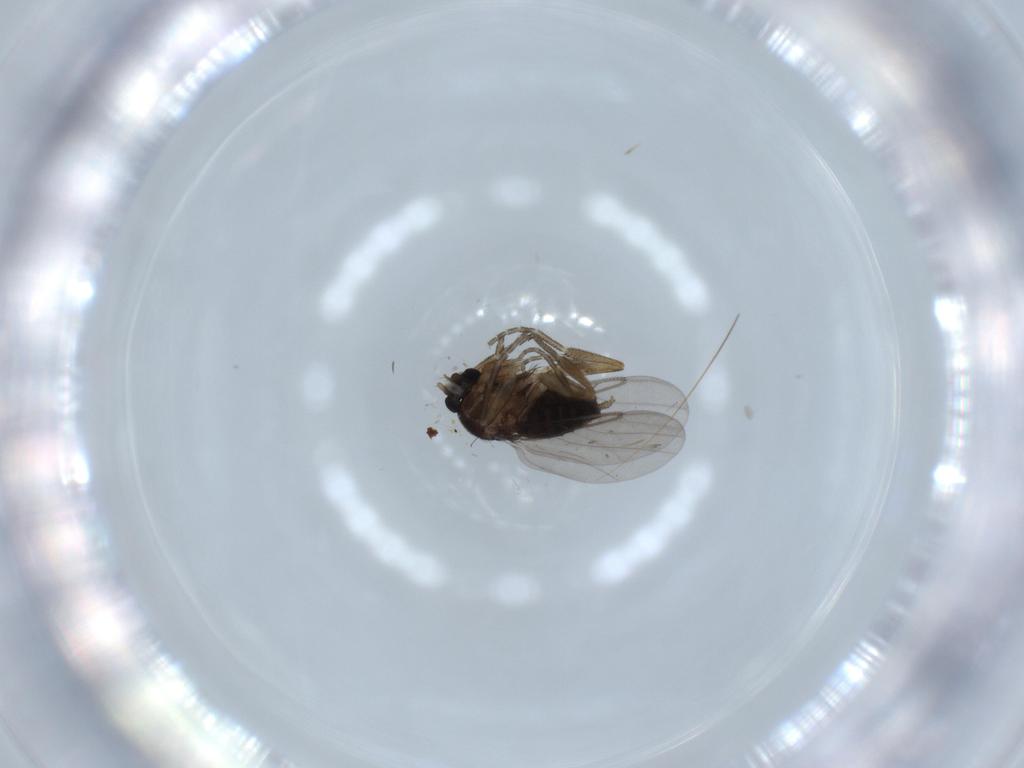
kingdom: Animalia
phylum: Arthropoda
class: Insecta
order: Diptera
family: Phoridae
